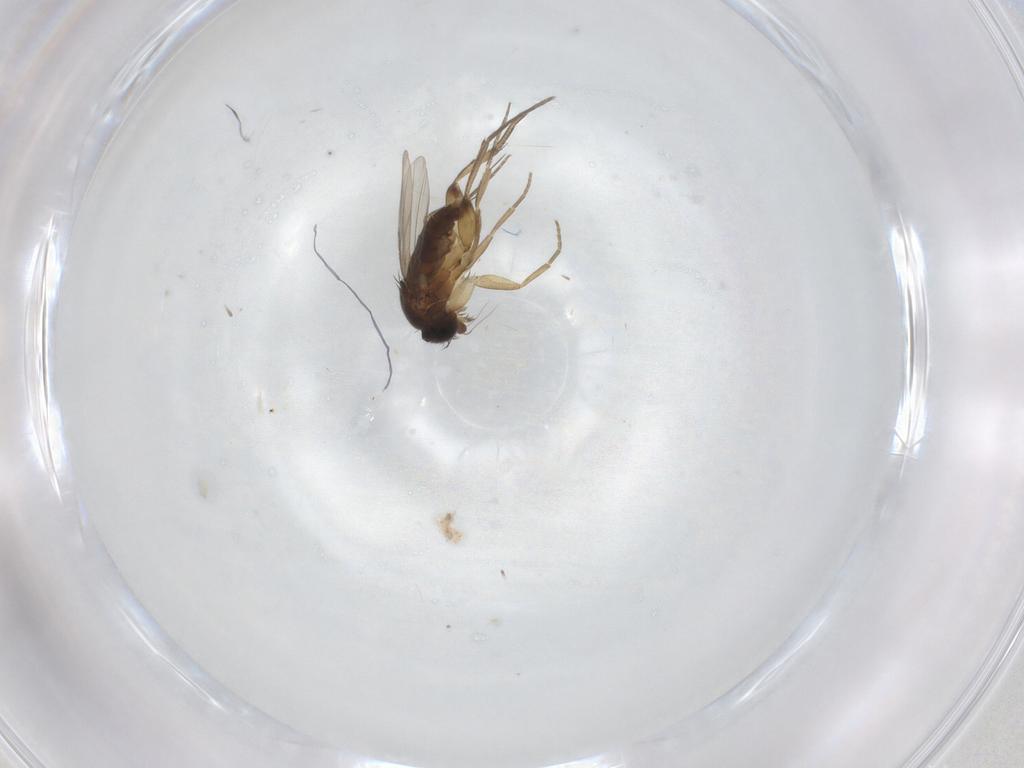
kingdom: Animalia
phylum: Arthropoda
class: Insecta
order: Diptera
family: Phoridae
